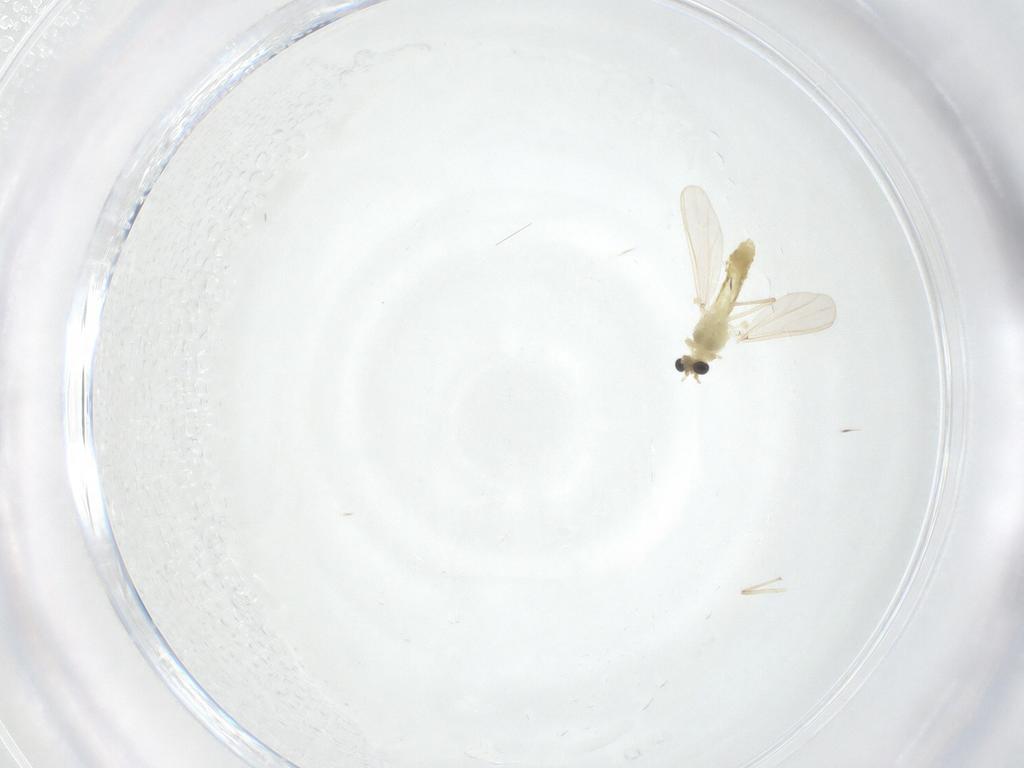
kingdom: Animalia
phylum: Arthropoda
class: Insecta
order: Diptera
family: Chironomidae
